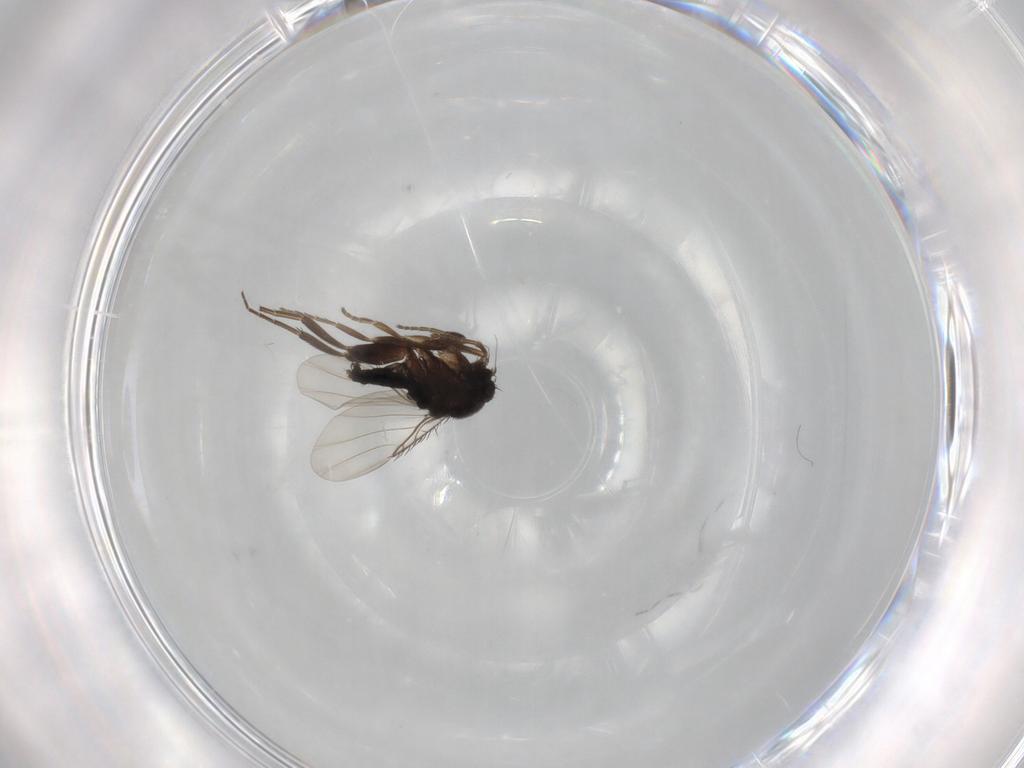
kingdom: Animalia
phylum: Arthropoda
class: Insecta
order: Diptera
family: Phoridae
